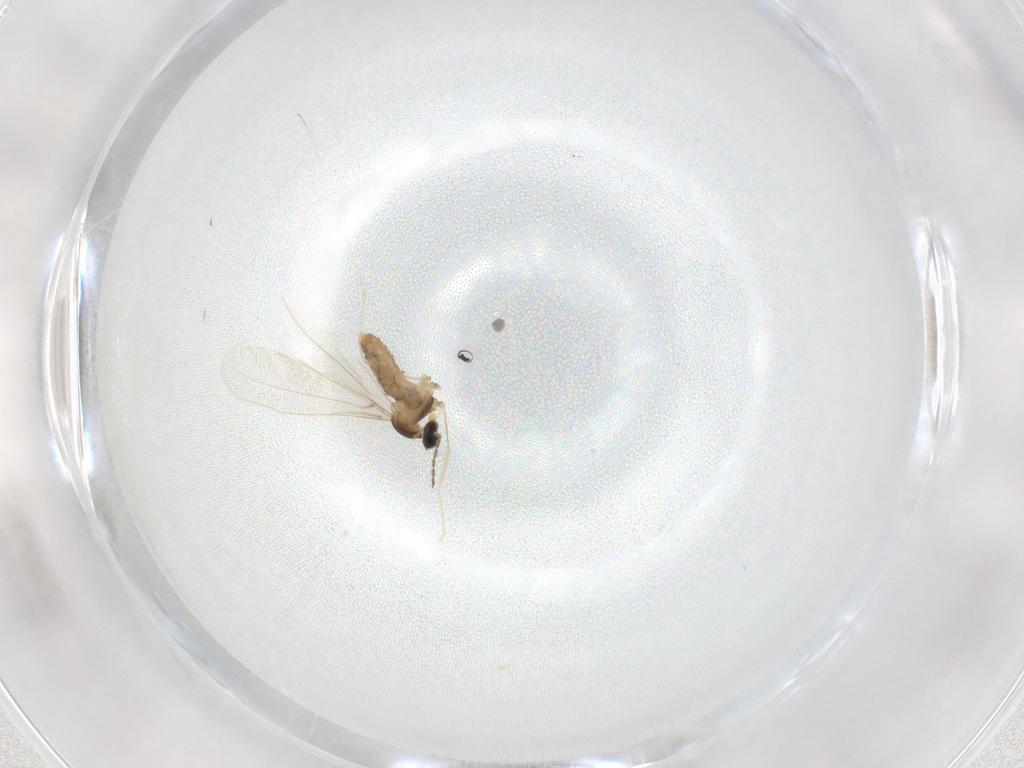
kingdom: Animalia
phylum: Arthropoda
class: Insecta
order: Diptera
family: Cecidomyiidae
